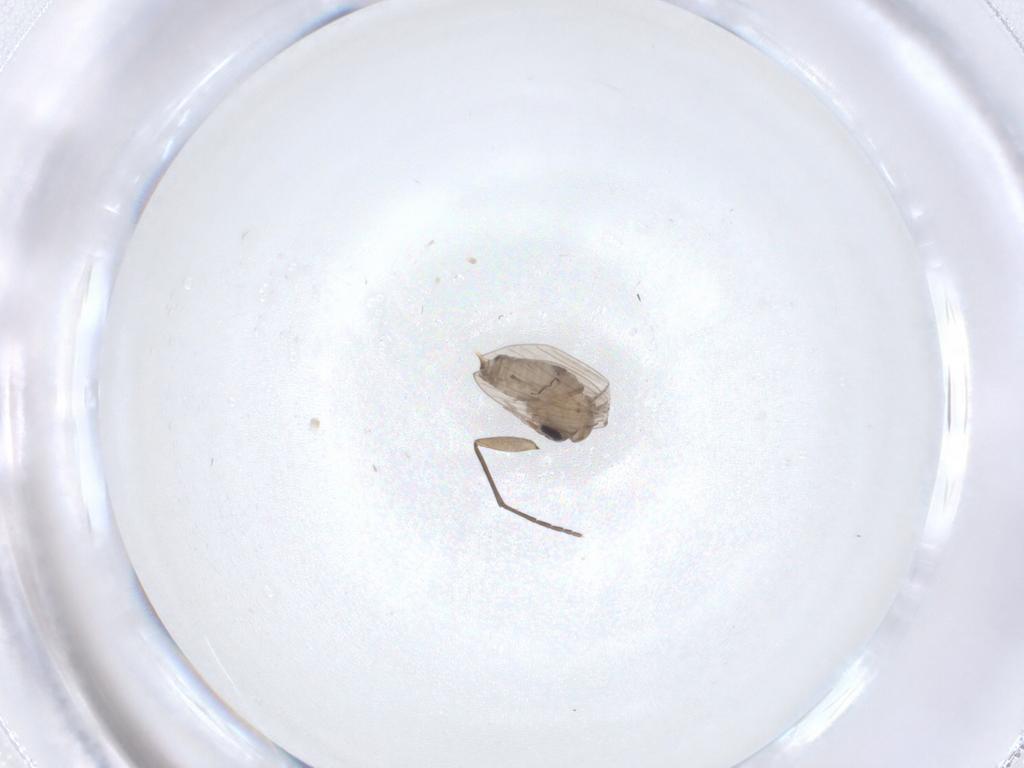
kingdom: Animalia
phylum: Arthropoda
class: Insecta
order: Diptera
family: Psychodidae
